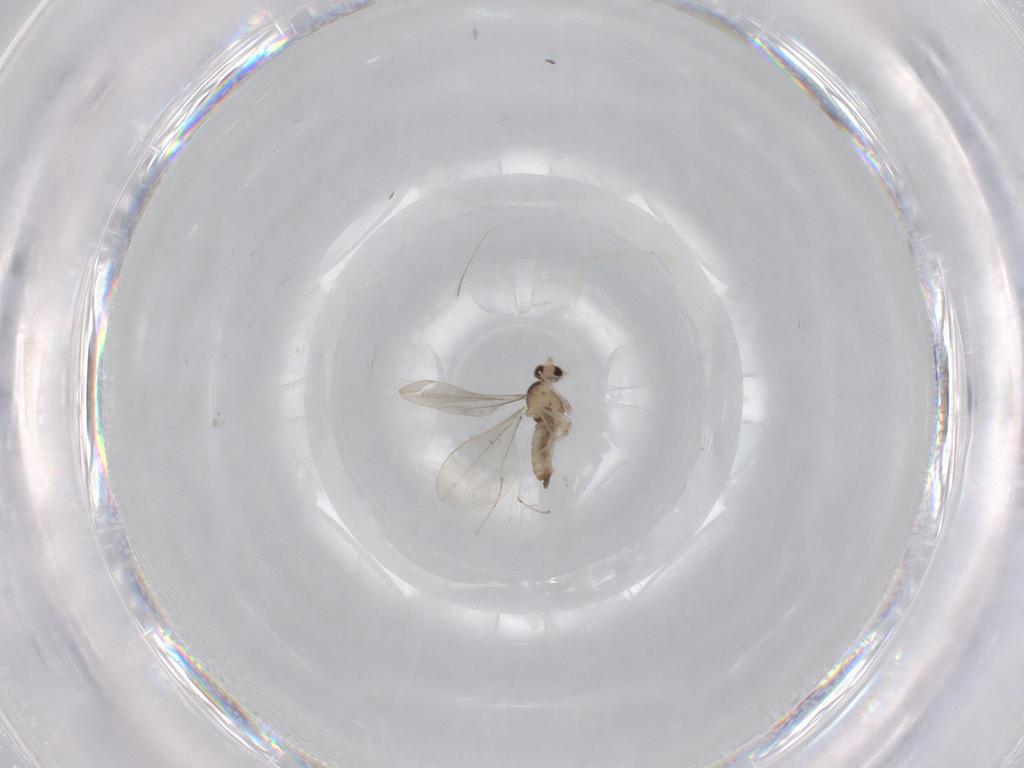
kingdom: Animalia
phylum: Arthropoda
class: Insecta
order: Diptera
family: Cecidomyiidae
